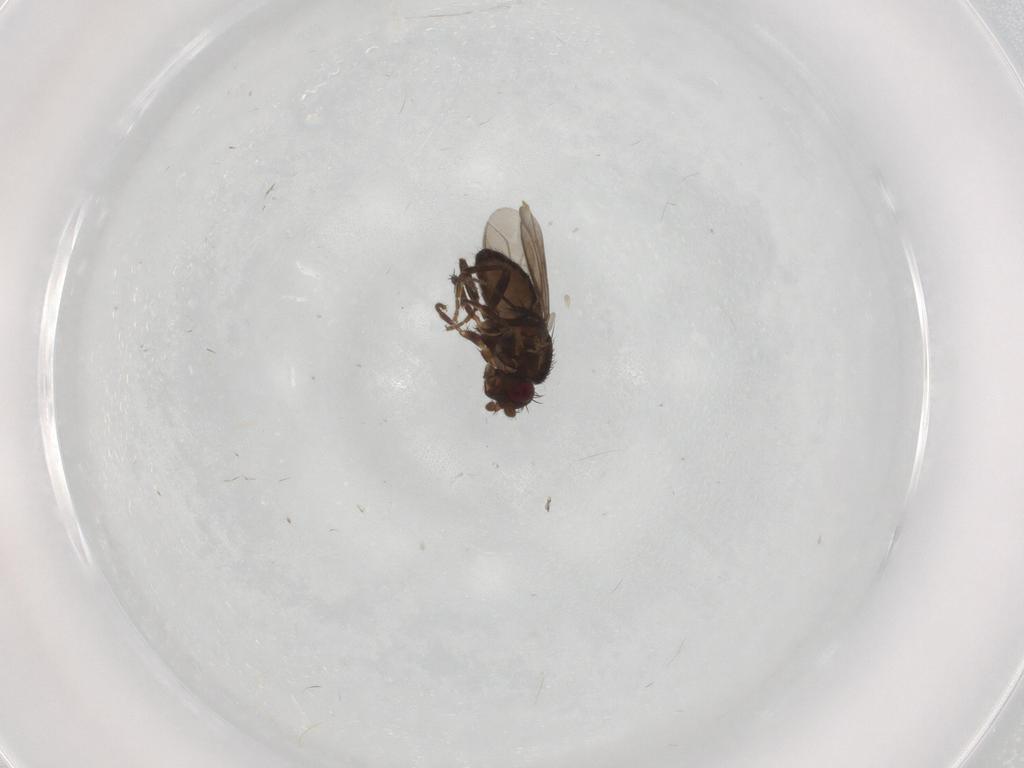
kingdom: Animalia
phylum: Arthropoda
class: Insecta
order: Diptera
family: Sphaeroceridae
